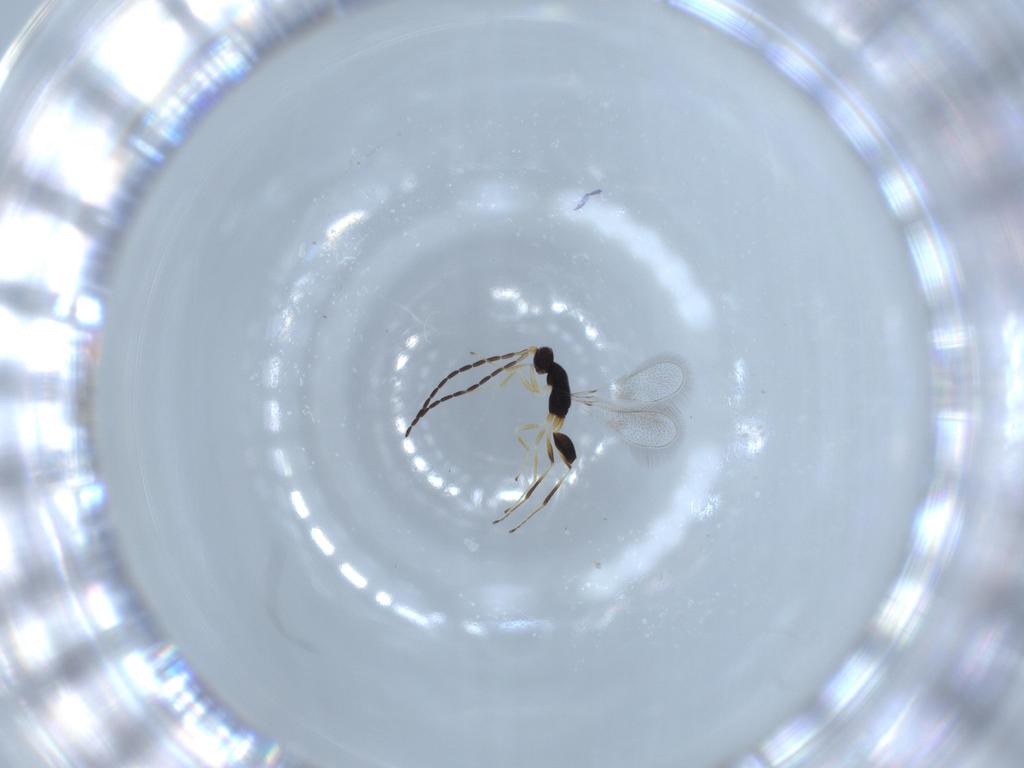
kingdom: Animalia
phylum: Arthropoda
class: Insecta
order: Hymenoptera
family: Mymaridae
